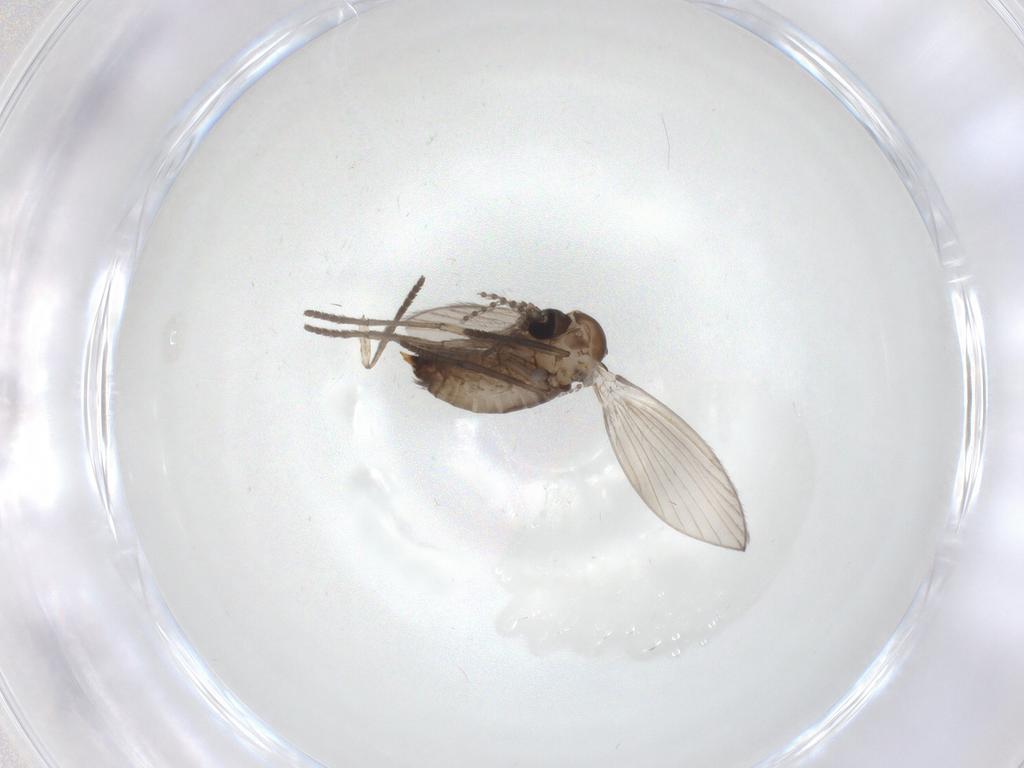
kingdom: Animalia
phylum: Arthropoda
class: Insecta
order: Diptera
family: Psychodidae
